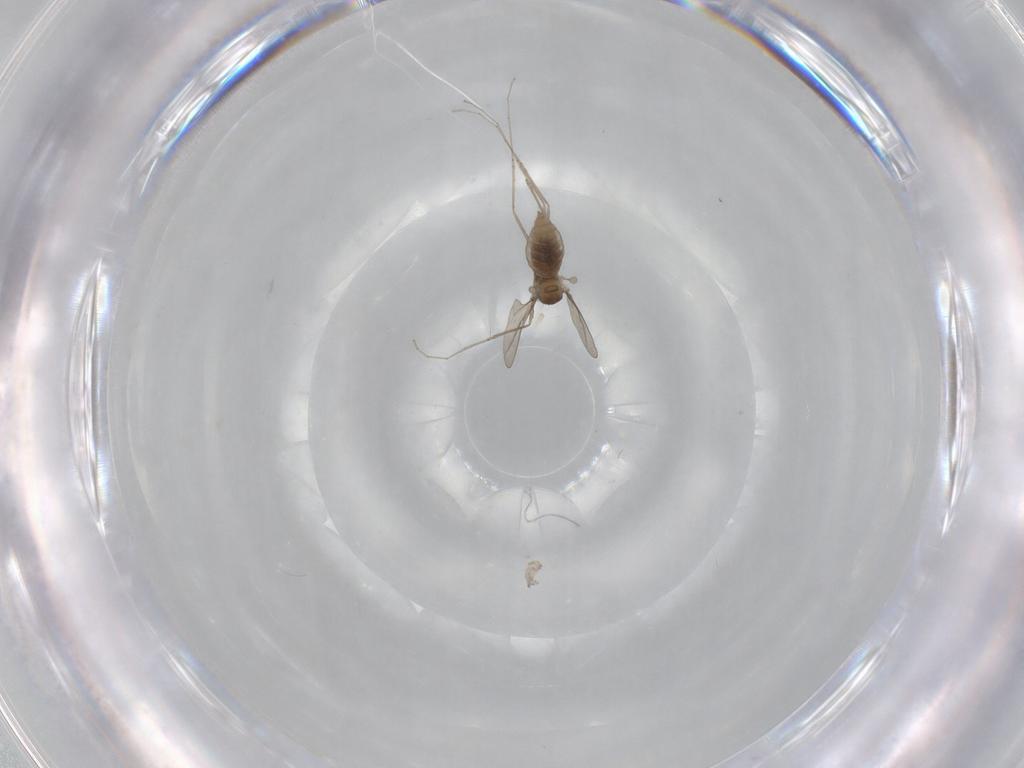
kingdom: Animalia
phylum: Arthropoda
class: Insecta
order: Diptera
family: Cecidomyiidae
